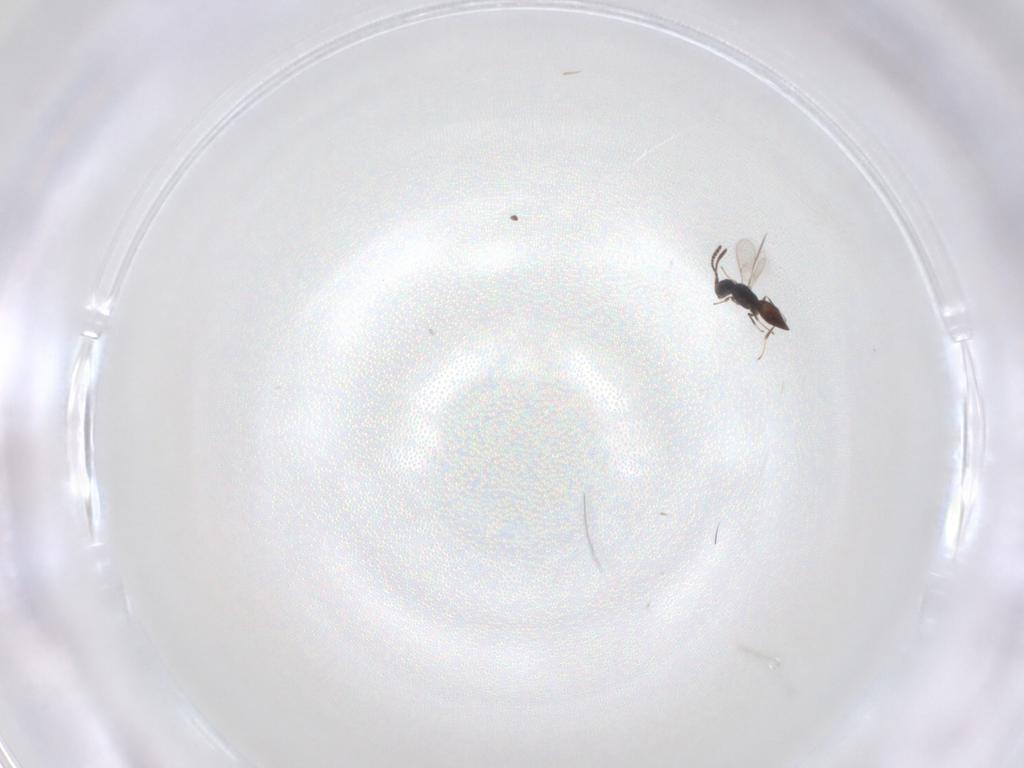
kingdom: Animalia
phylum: Arthropoda
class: Insecta
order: Hymenoptera
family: Scelionidae
